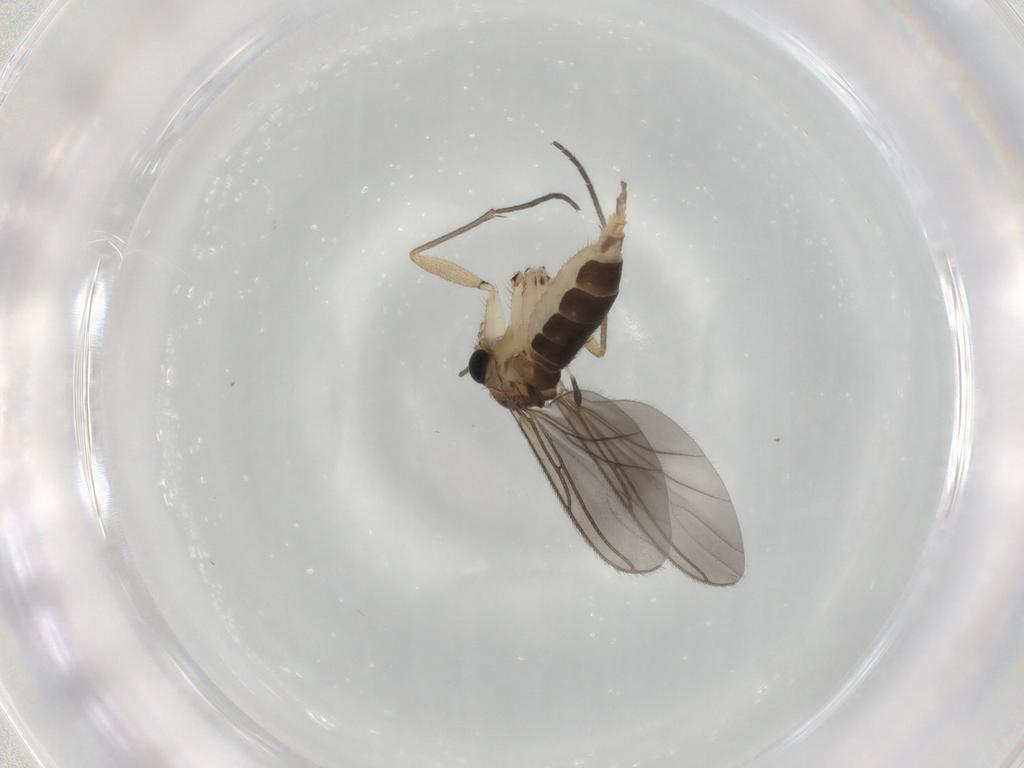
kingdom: Animalia
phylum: Arthropoda
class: Insecta
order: Diptera
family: Sciaridae
